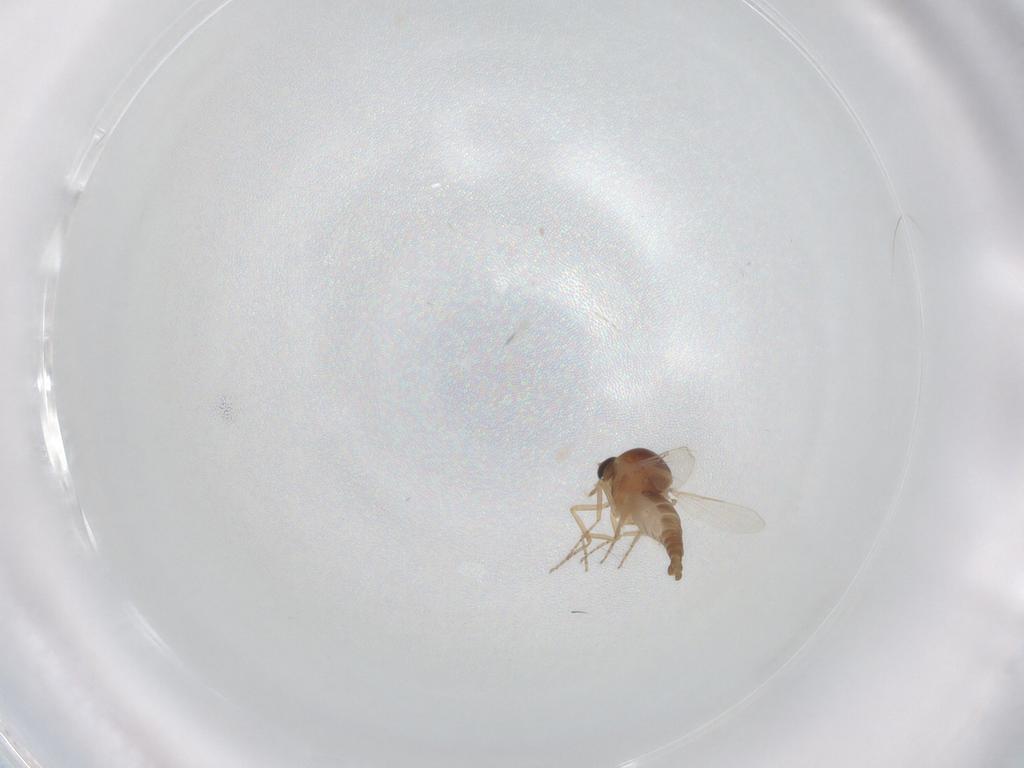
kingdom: Animalia
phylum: Arthropoda
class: Insecta
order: Diptera
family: Ceratopogonidae
